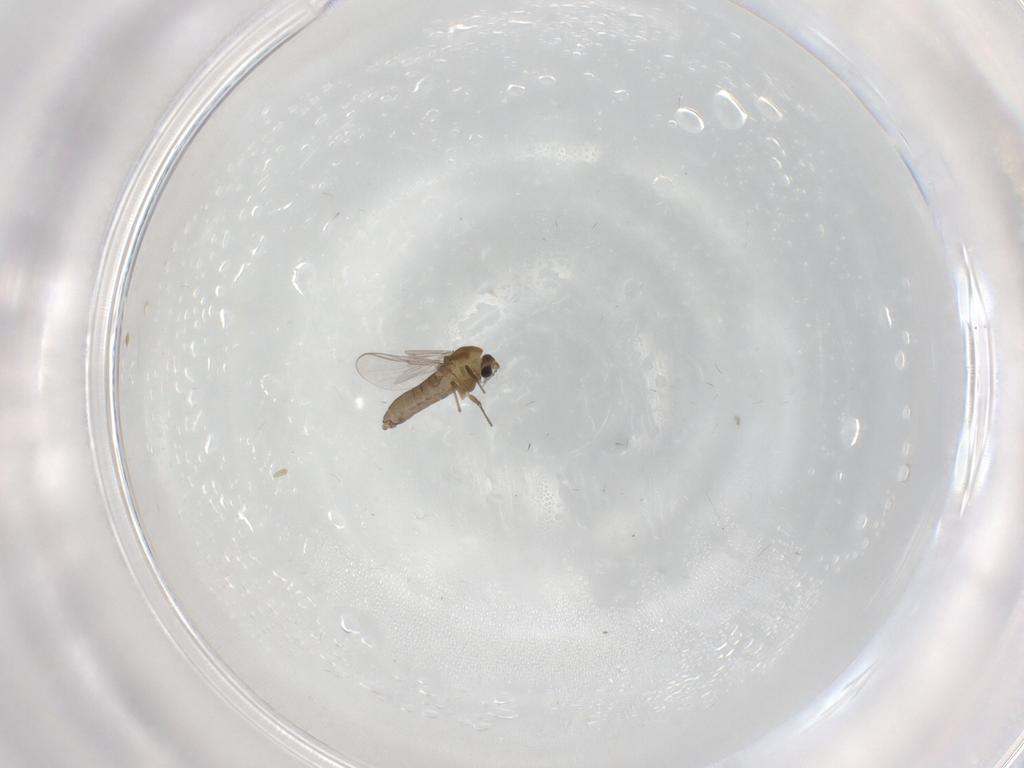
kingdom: Animalia
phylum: Arthropoda
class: Insecta
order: Diptera
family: Chironomidae
